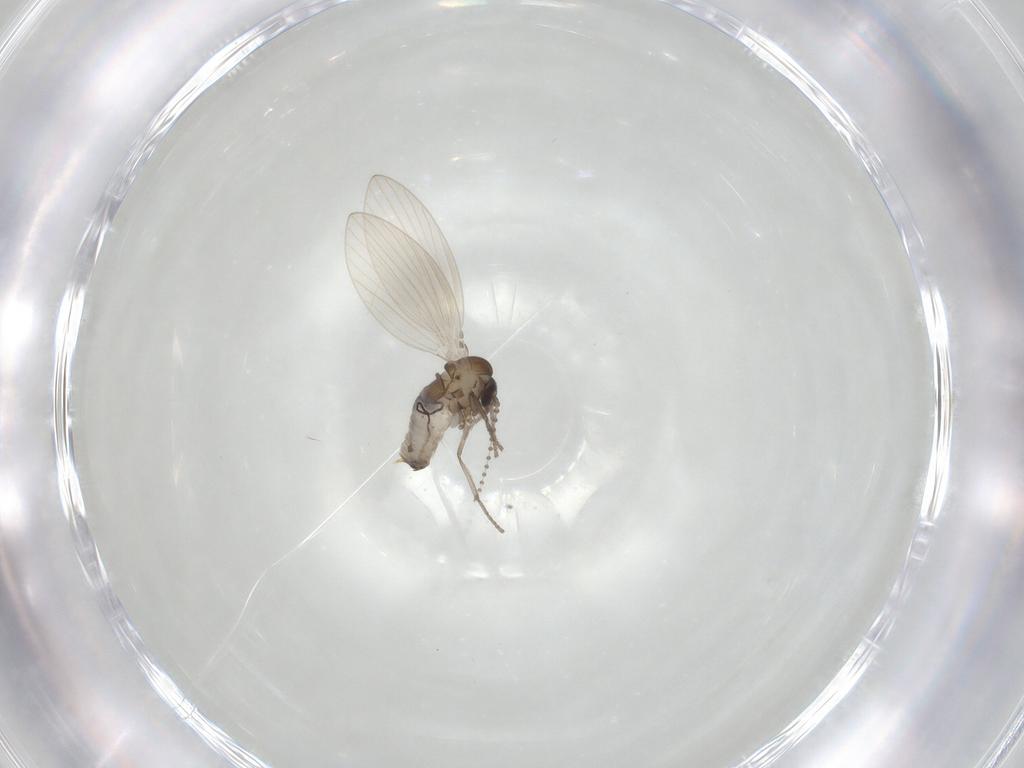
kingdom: Animalia
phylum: Arthropoda
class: Insecta
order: Diptera
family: Psychodidae
